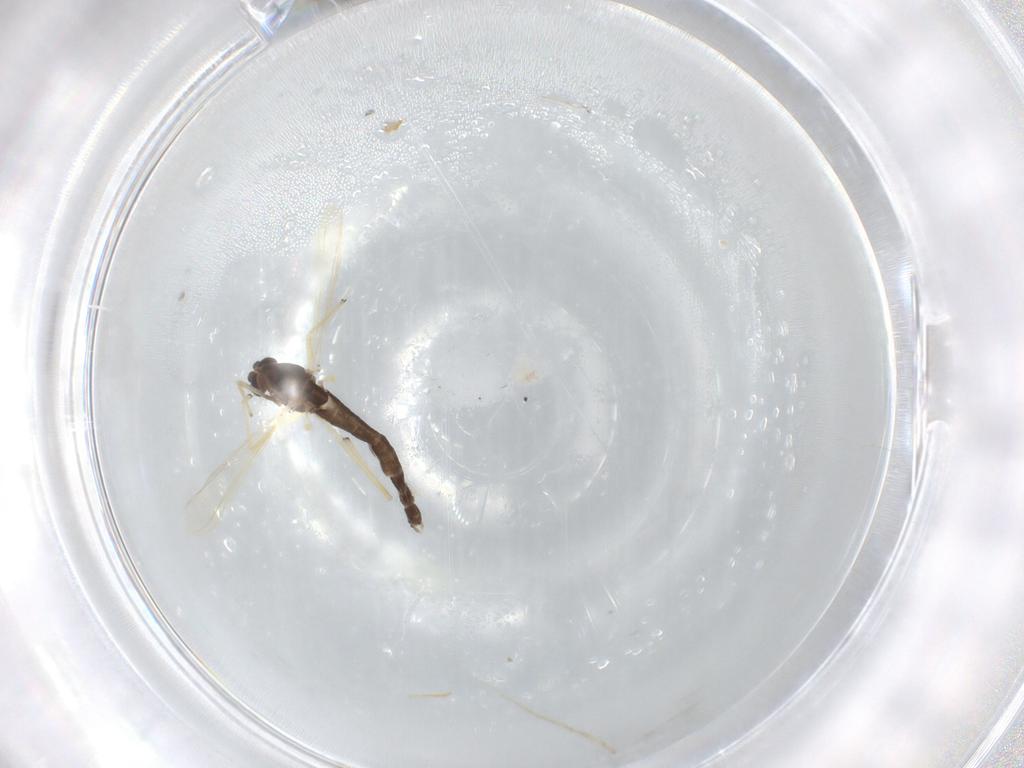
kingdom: Animalia
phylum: Arthropoda
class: Insecta
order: Diptera
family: Chironomidae
